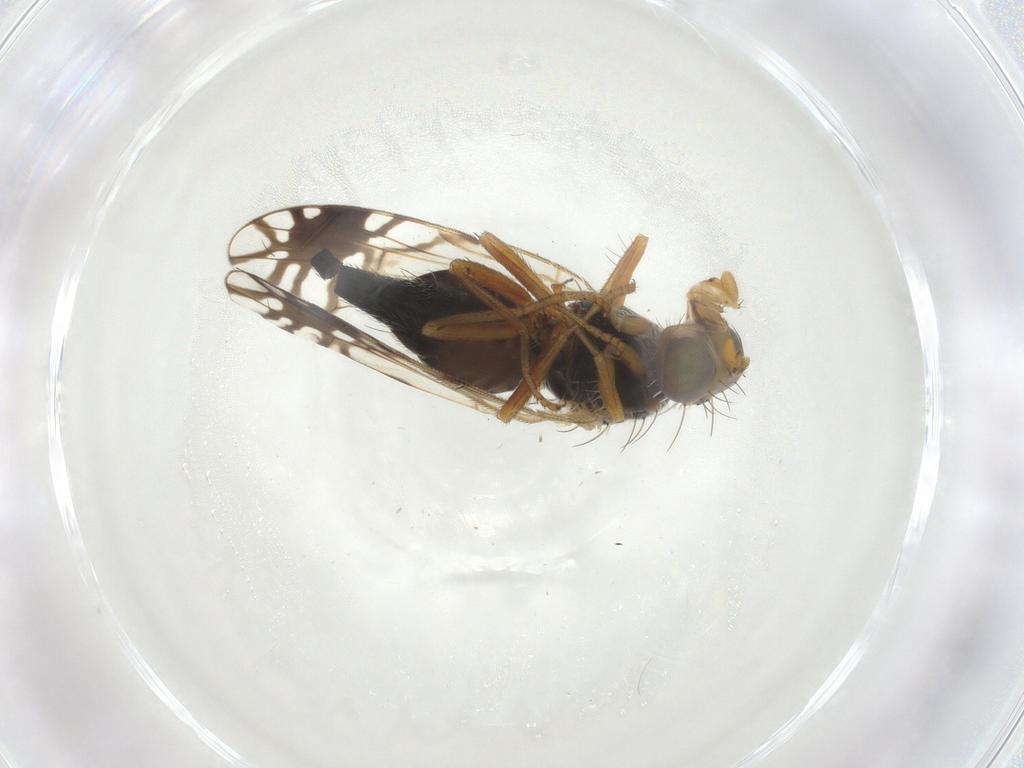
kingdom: Animalia
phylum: Arthropoda
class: Insecta
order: Diptera
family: Tephritidae
